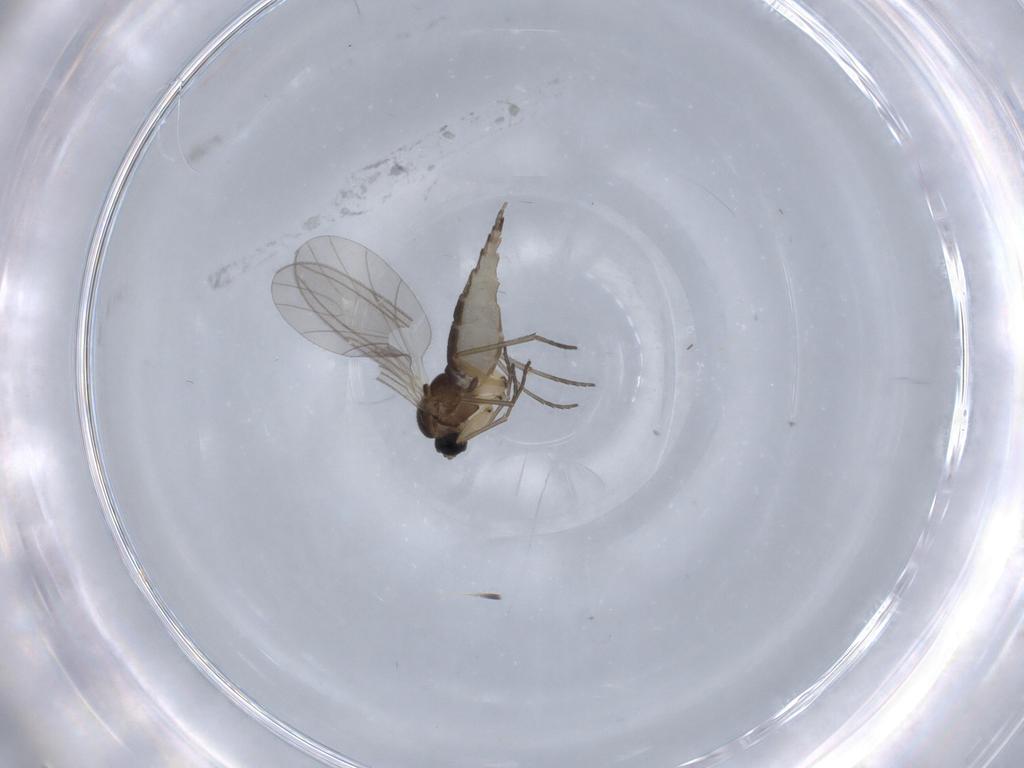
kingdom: Animalia
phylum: Arthropoda
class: Insecta
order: Diptera
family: Sciaridae
